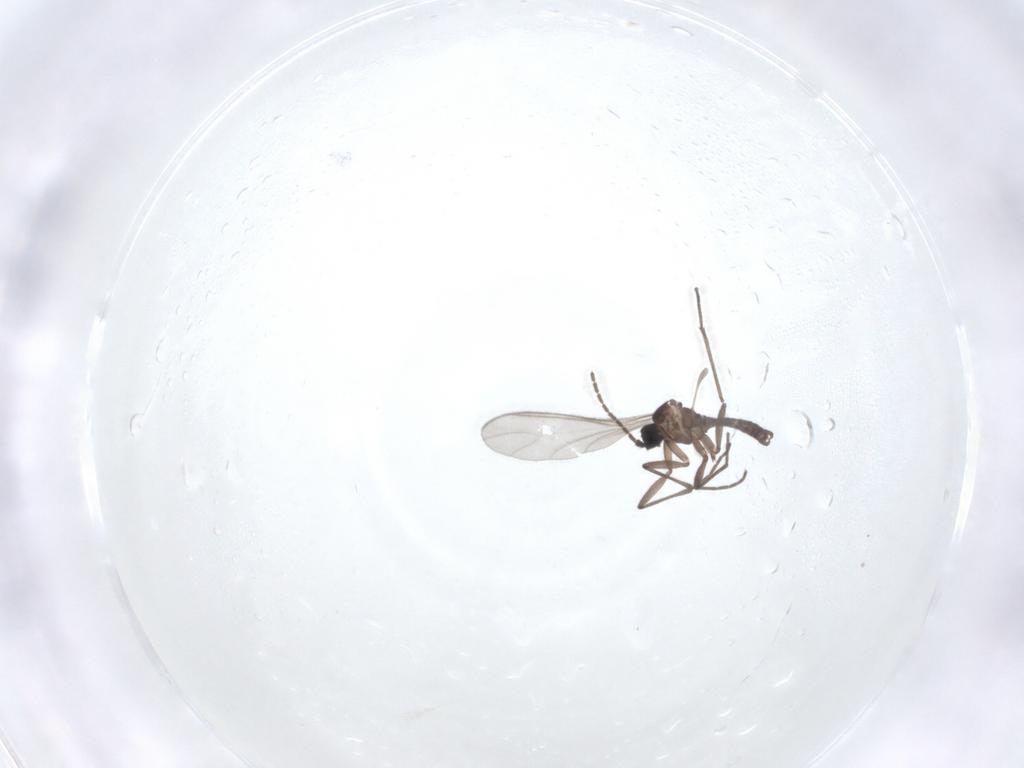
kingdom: Animalia
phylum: Arthropoda
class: Insecta
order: Diptera
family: Sciaridae
